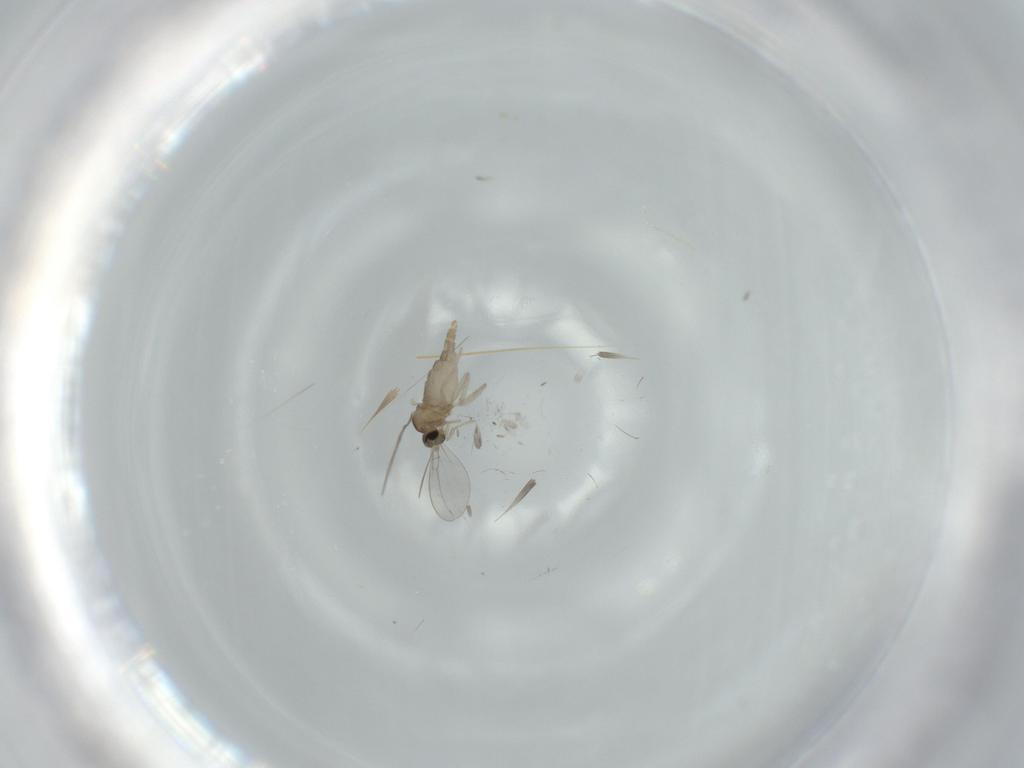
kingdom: Animalia
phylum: Arthropoda
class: Insecta
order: Diptera
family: Cecidomyiidae
